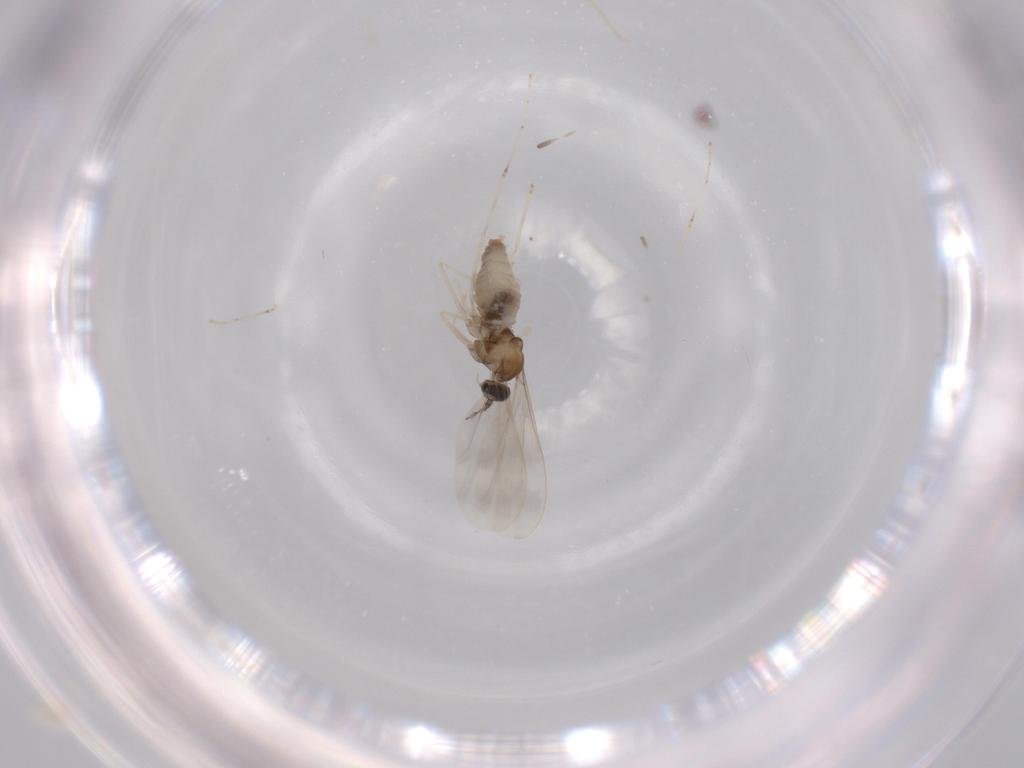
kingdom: Animalia
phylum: Arthropoda
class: Insecta
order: Diptera
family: Cecidomyiidae
